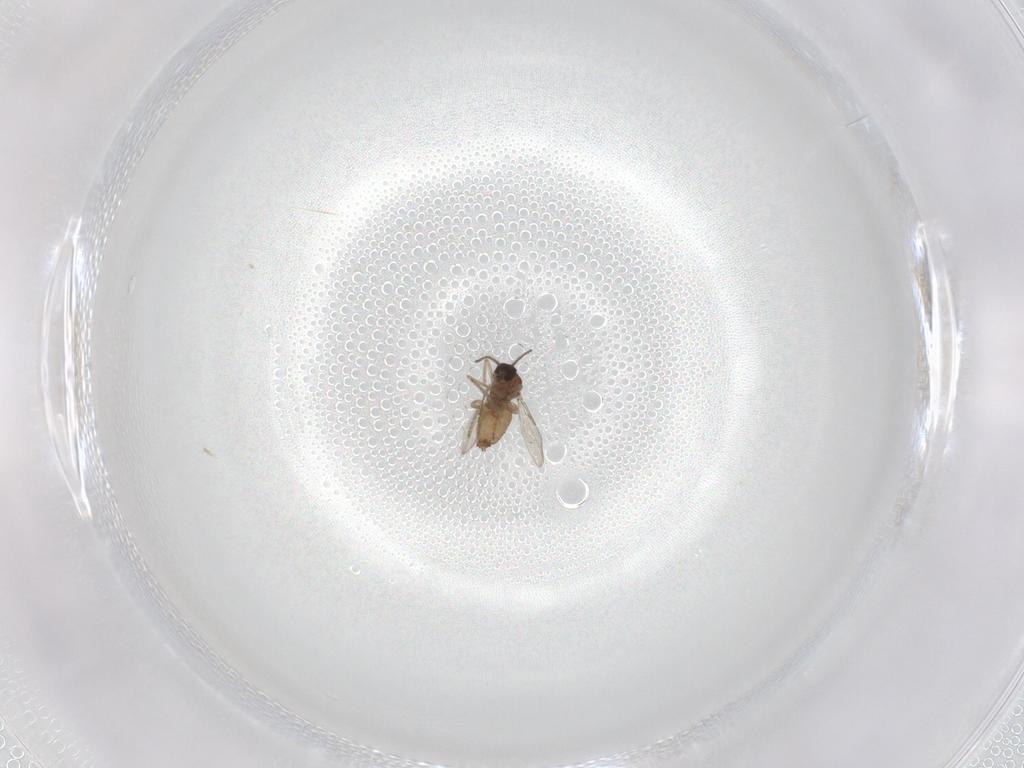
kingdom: Animalia
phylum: Arthropoda
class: Insecta
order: Diptera
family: Ceratopogonidae
